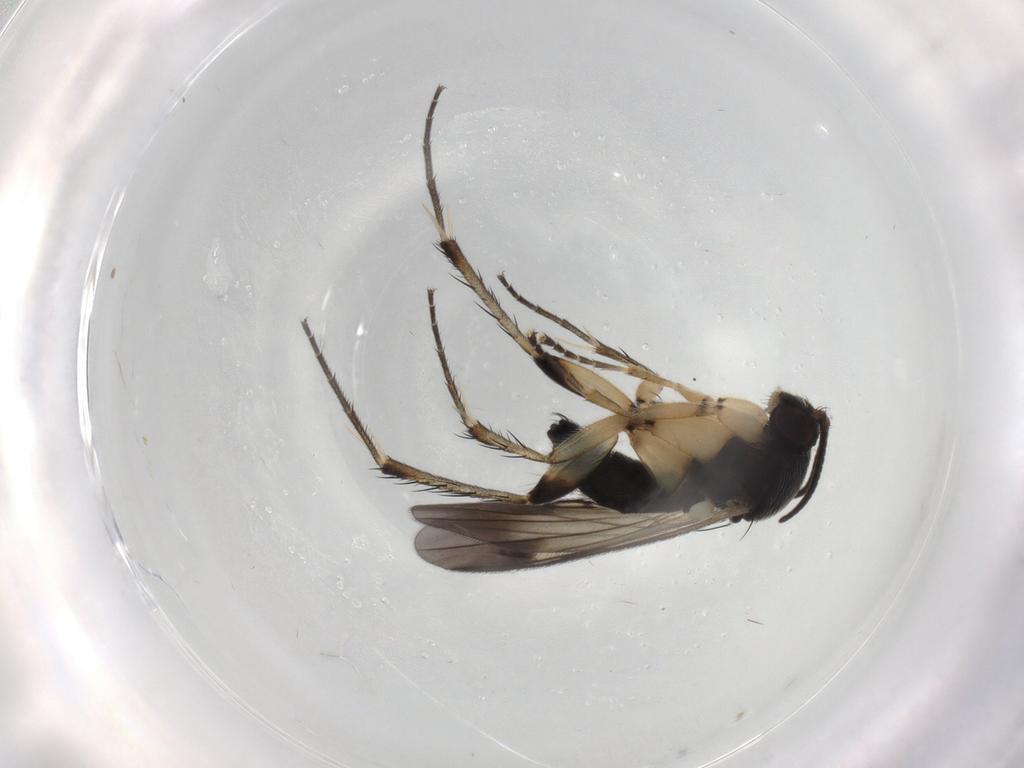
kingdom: Animalia
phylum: Arthropoda
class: Insecta
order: Diptera
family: Mycetophilidae
